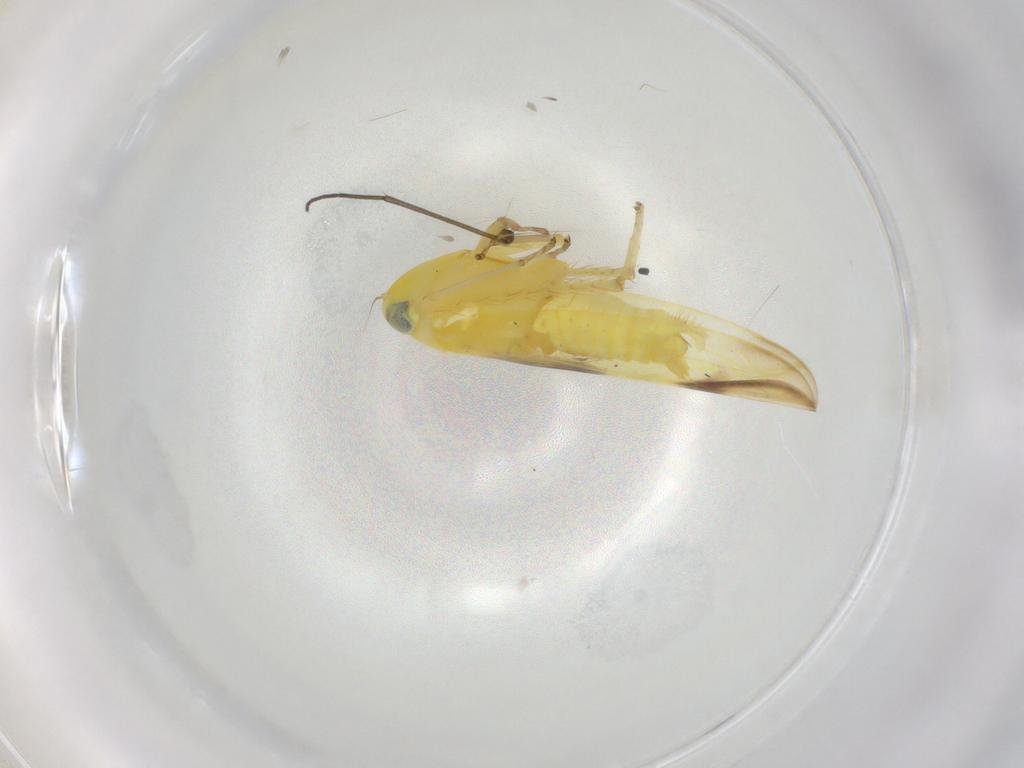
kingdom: Animalia
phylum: Arthropoda
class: Insecta
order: Hemiptera
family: Cicadellidae
